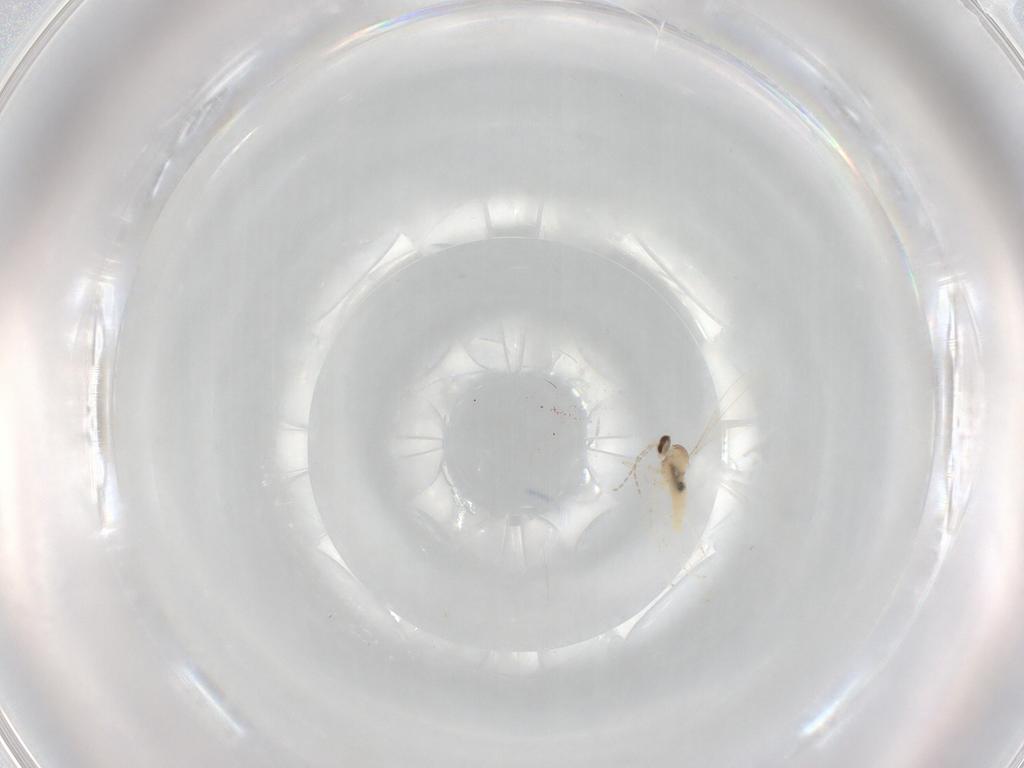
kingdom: Animalia
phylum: Arthropoda
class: Insecta
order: Diptera
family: Cecidomyiidae
